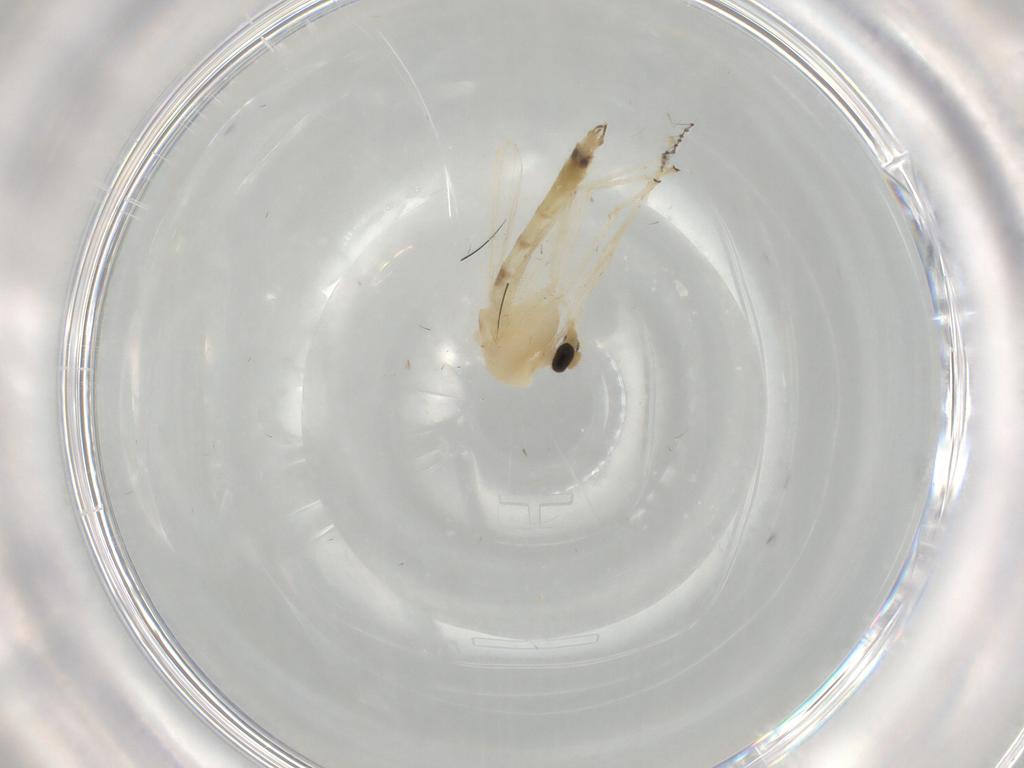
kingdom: Animalia
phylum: Arthropoda
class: Insecta
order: Diptera
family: Chironomidae
